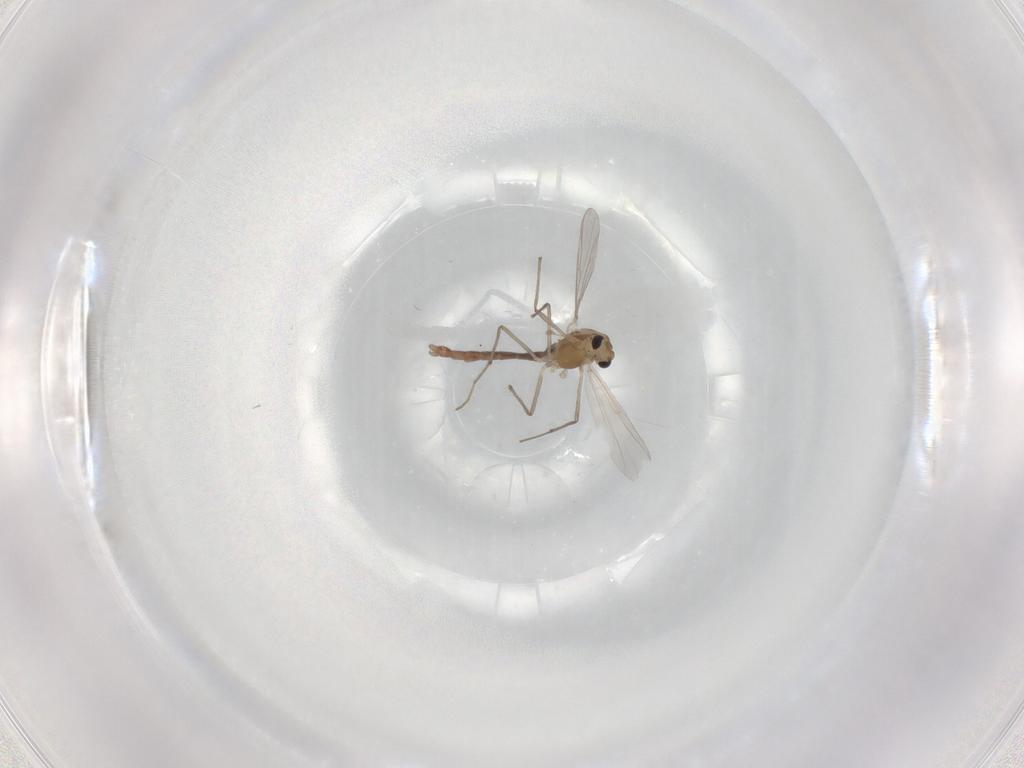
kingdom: Animalia
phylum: Arthropoda
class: Insecta
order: Diptera
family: Chironomidae
